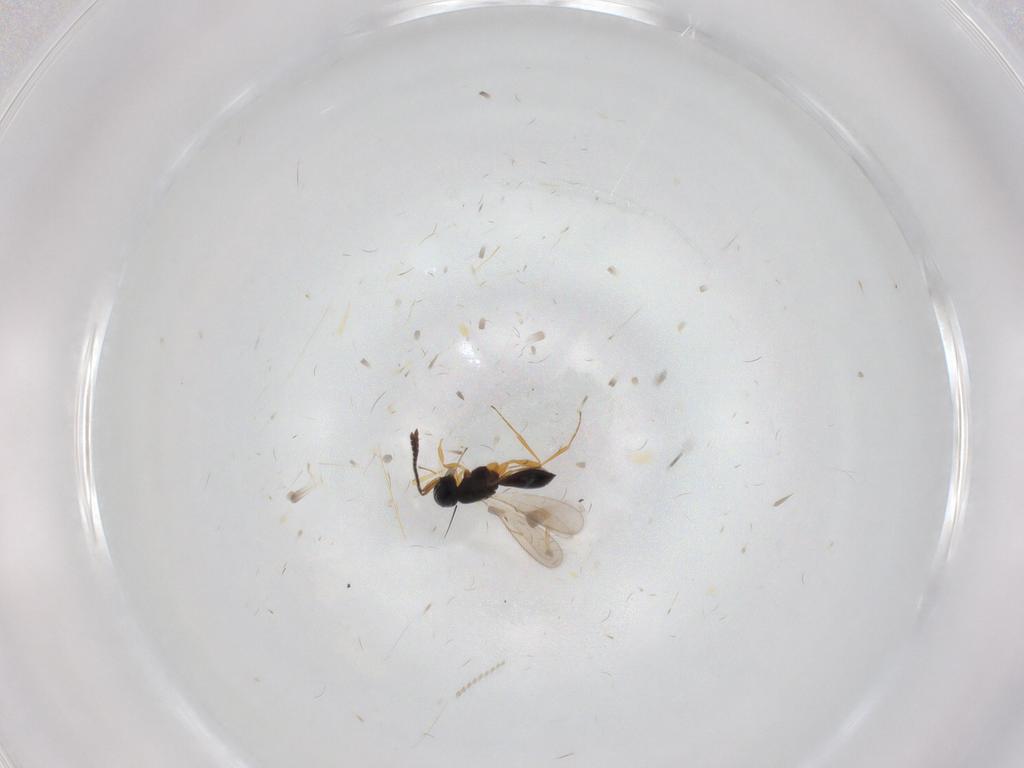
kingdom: Animalia
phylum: Arthropoda
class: Insecta
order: Hymenoptera
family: Scelionidae
